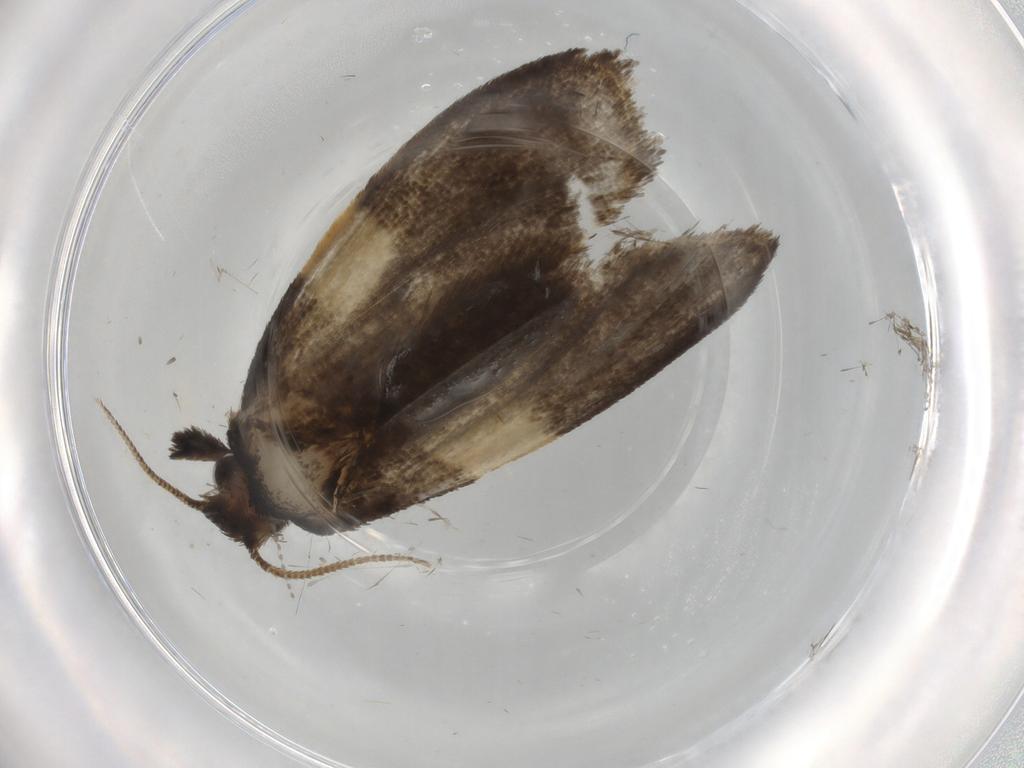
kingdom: Animalia
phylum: Arthropoda
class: Insecta
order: Lepidoptera
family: Psychidae
